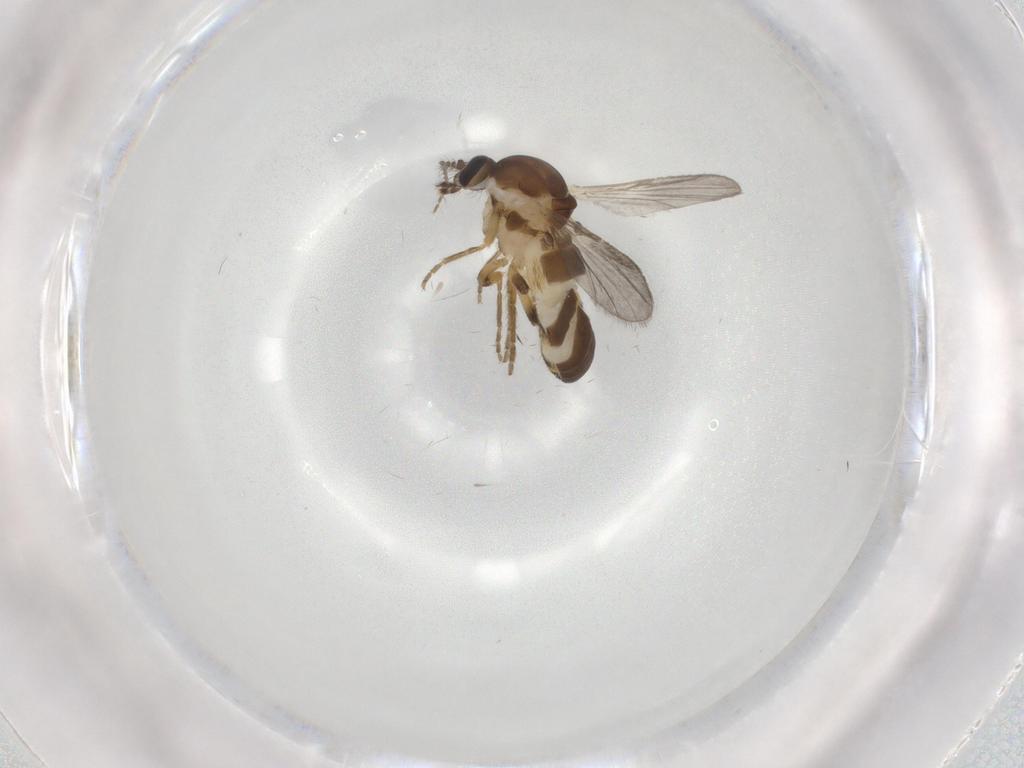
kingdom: Animalia
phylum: Arthropoda
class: Insecta
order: Diptera
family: Ceratopogonidae
